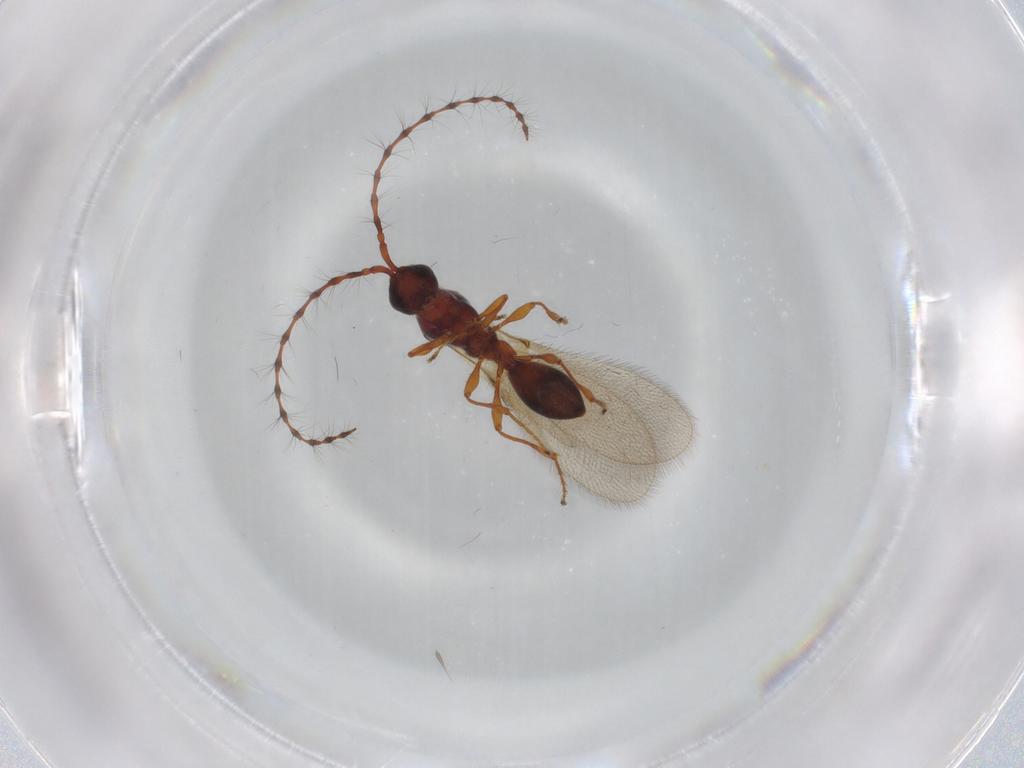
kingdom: Animalia
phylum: Arthropoda
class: Insecta
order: Hymenoptera
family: Diapriidae
